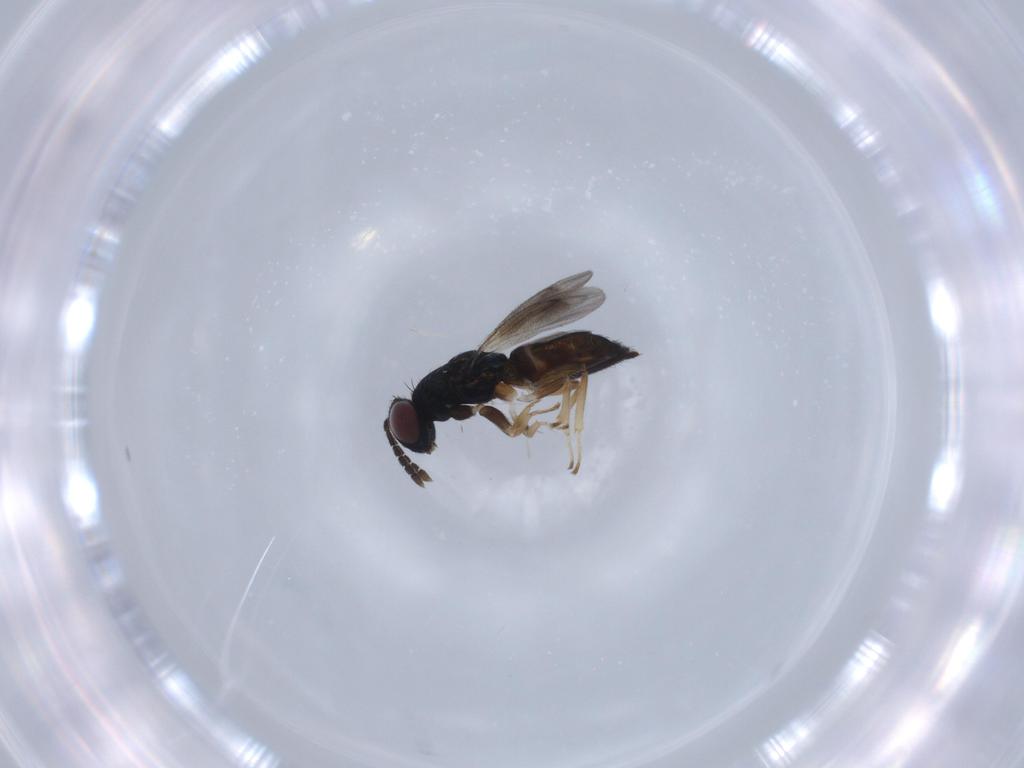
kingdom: Animalia
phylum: Arthropoda
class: Insecta
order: Hymenoptera
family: Eulophidae
